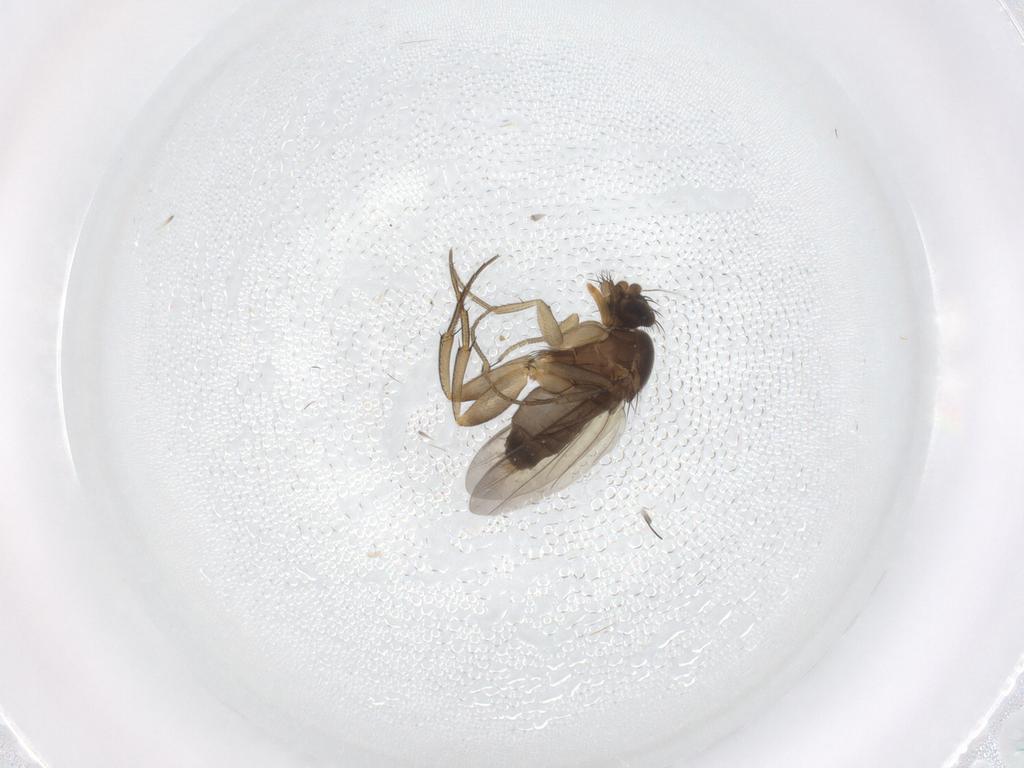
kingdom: Animalia
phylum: Arthropoda
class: Insecta
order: Diptera
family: Phoridae
